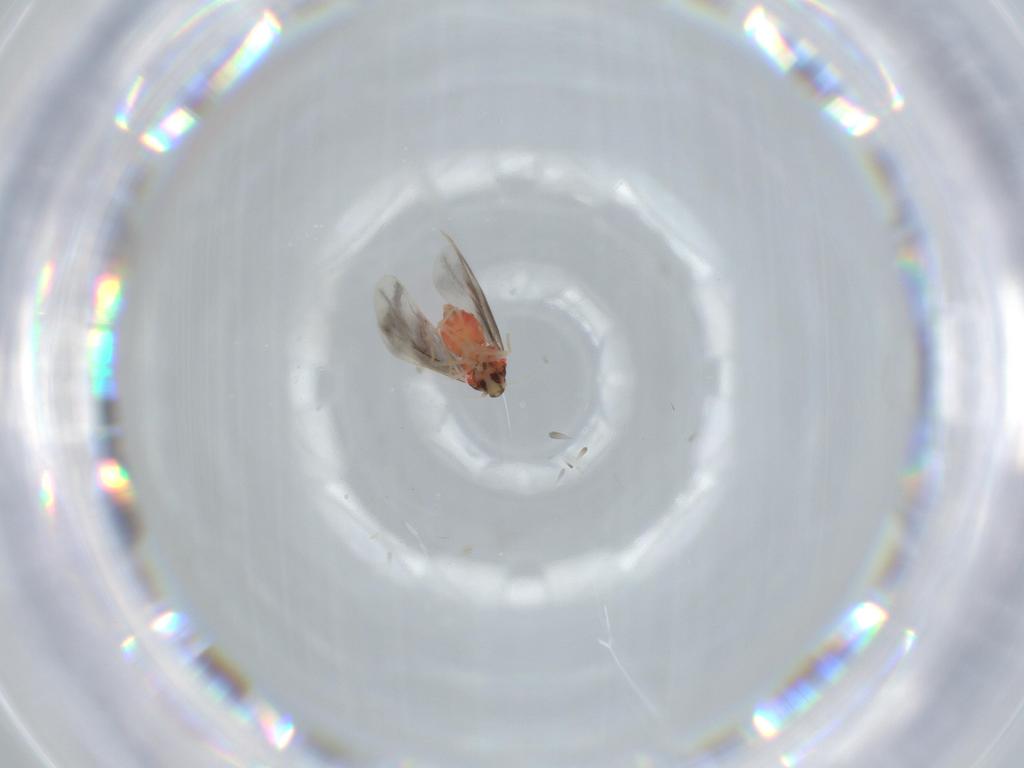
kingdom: Animalia
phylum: Arthropoda
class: Insecta
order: Hemiptera
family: Aleyrodidae
